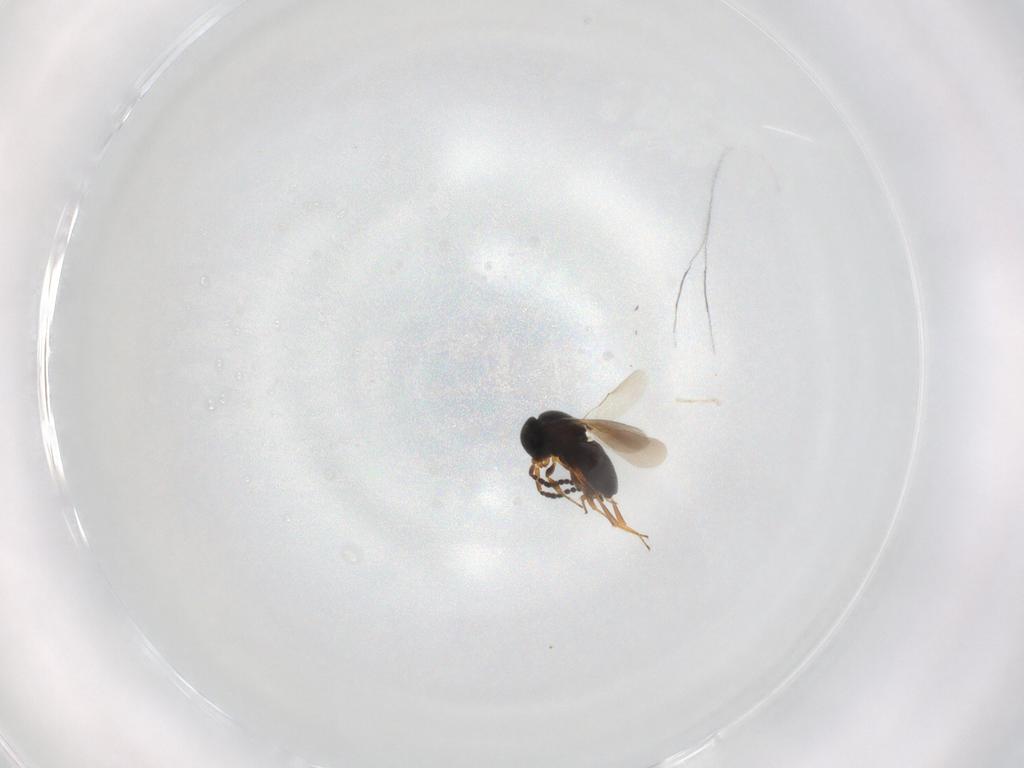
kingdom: Animalia
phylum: Arthropoda
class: Insecta
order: Hymenoptera
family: Scelionidae
